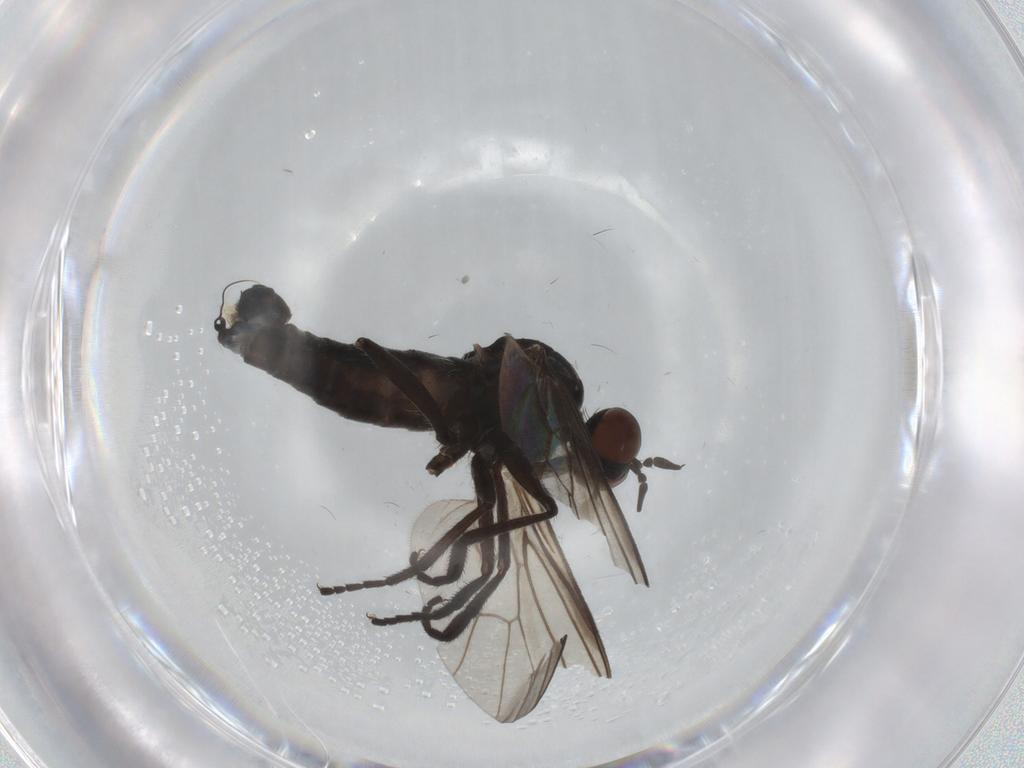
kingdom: Animalia
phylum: Arthropoda
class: Insecta
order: Diptera
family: Empididae
